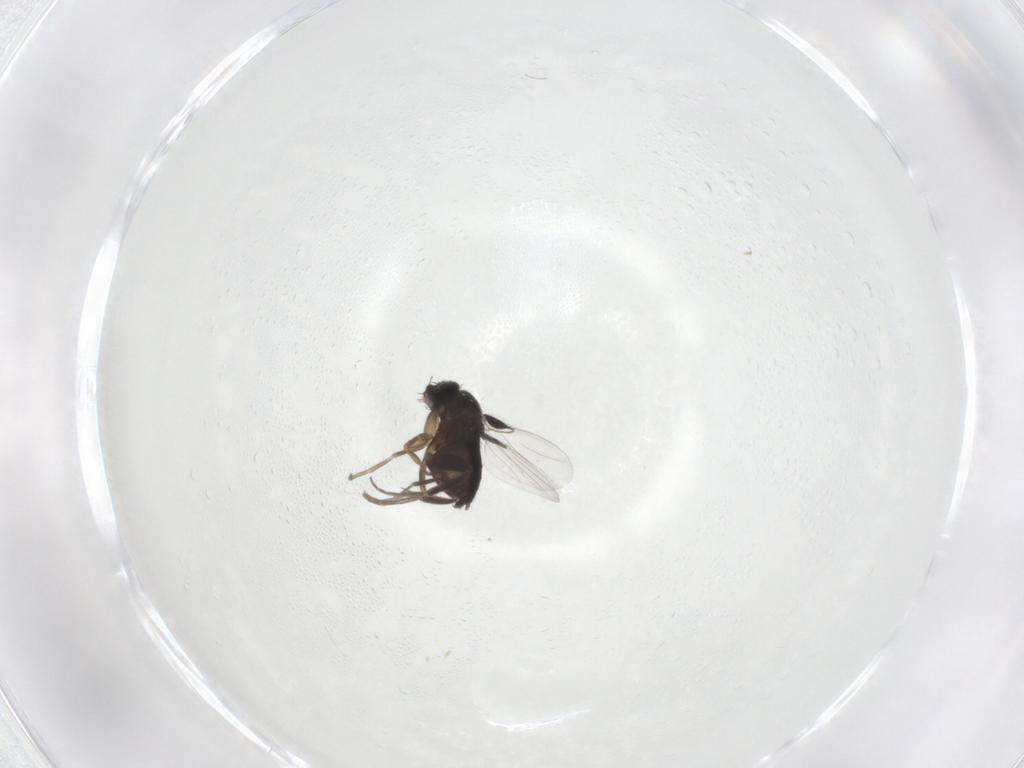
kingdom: Animalia
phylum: Arthropoda
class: Insecta
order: Diptera
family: Phoridae
